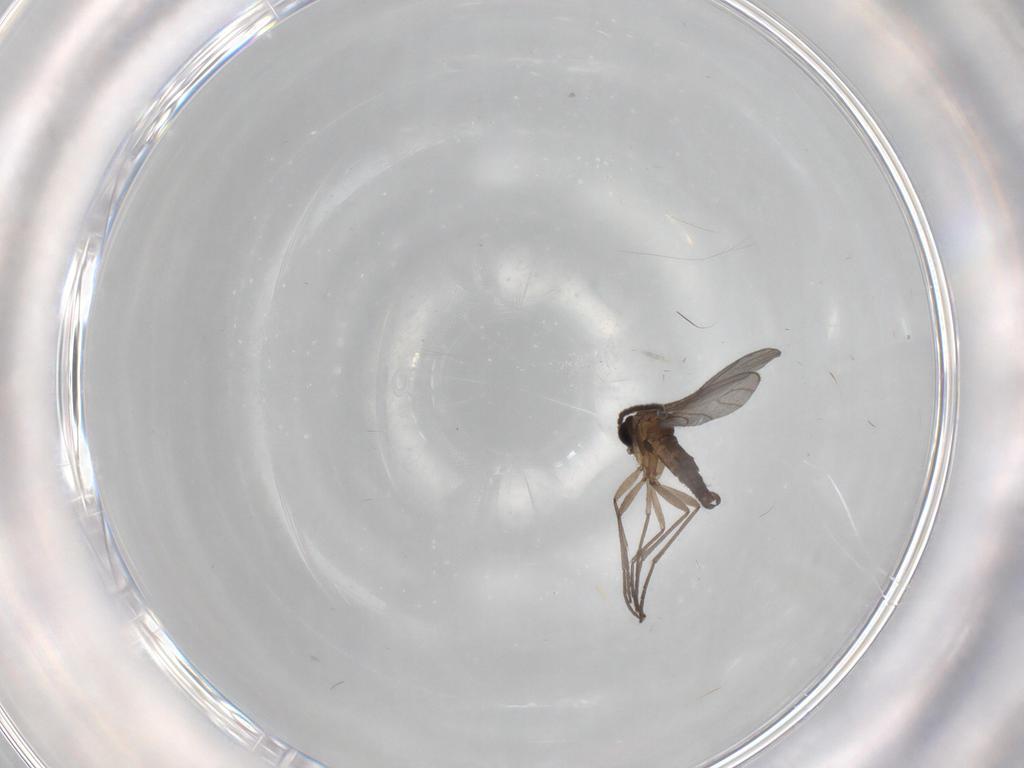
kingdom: Animalia
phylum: Arthropoda
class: Insecta
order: Diptera
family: Sciaridae
